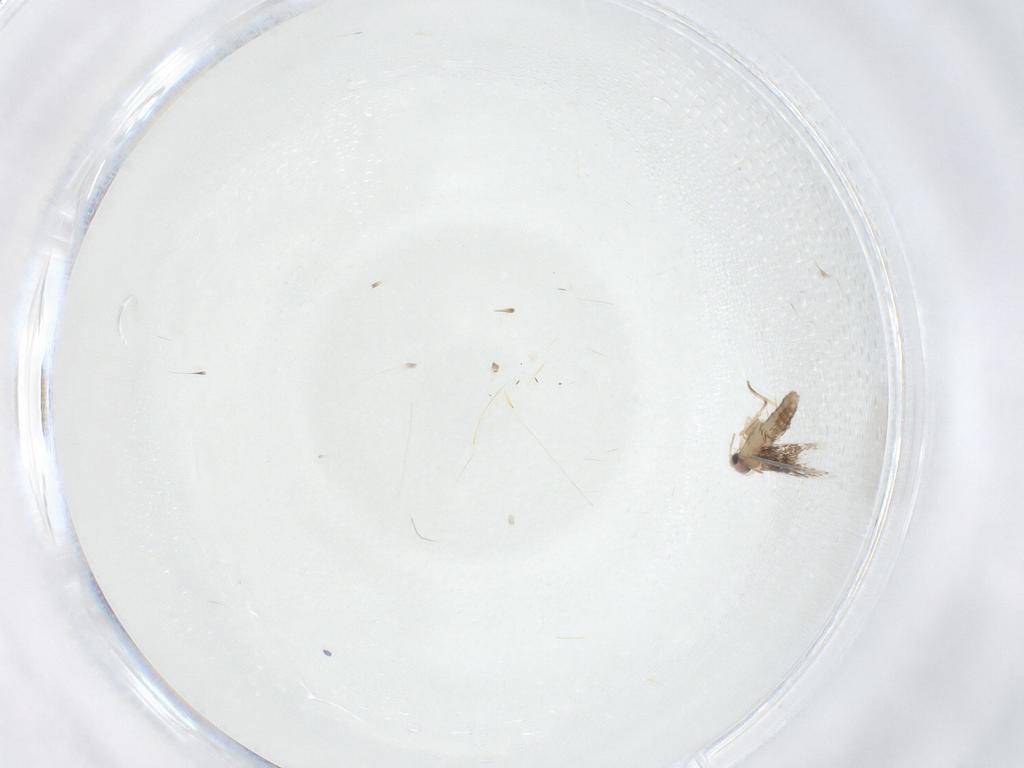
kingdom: Animalia
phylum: Arthropoda
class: Insecta
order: Lepidoptera
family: Nepticulidae
